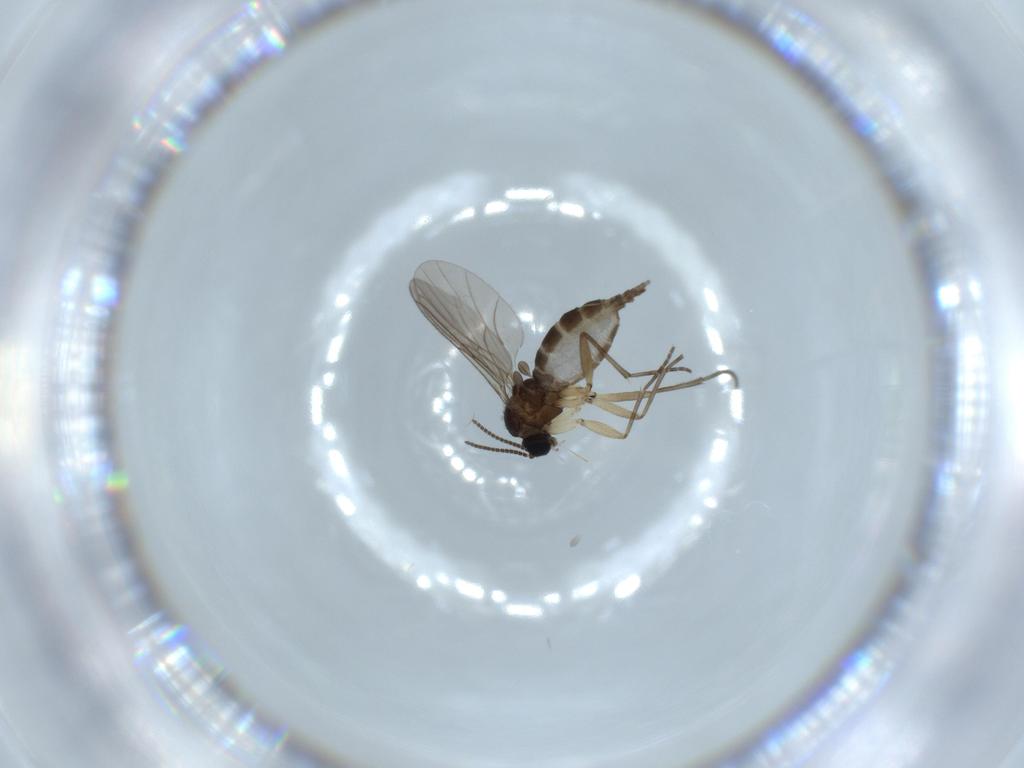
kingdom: Animalia
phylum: Arthropoda
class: Insecta
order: Diptera
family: Sciaridae
